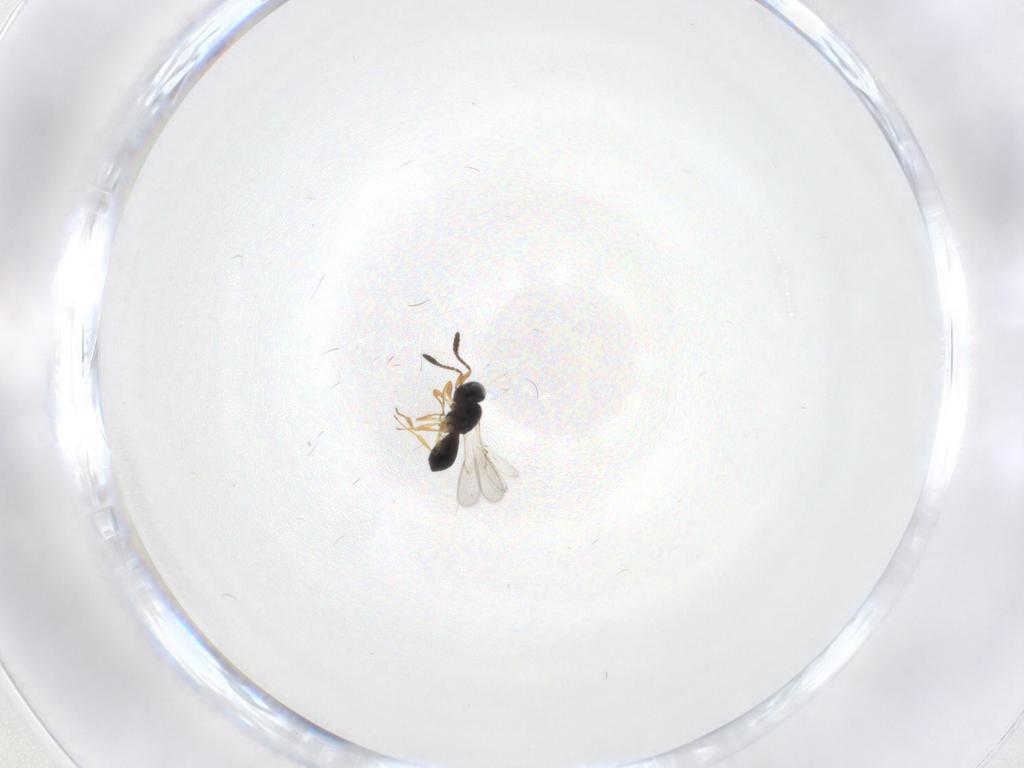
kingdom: Animalia
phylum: Arthropoda
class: Insecta
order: Hymenoptera
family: Scelionidae
